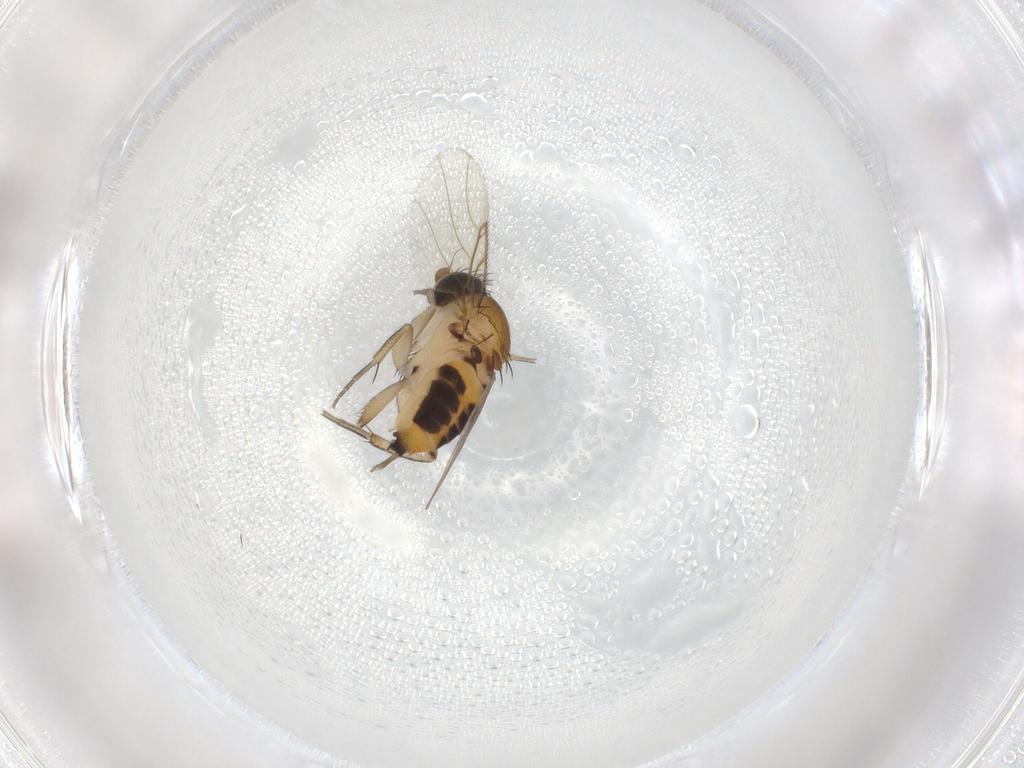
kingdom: Animalia
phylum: Arthropoda
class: Insecta
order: Diptera
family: Phoridae
